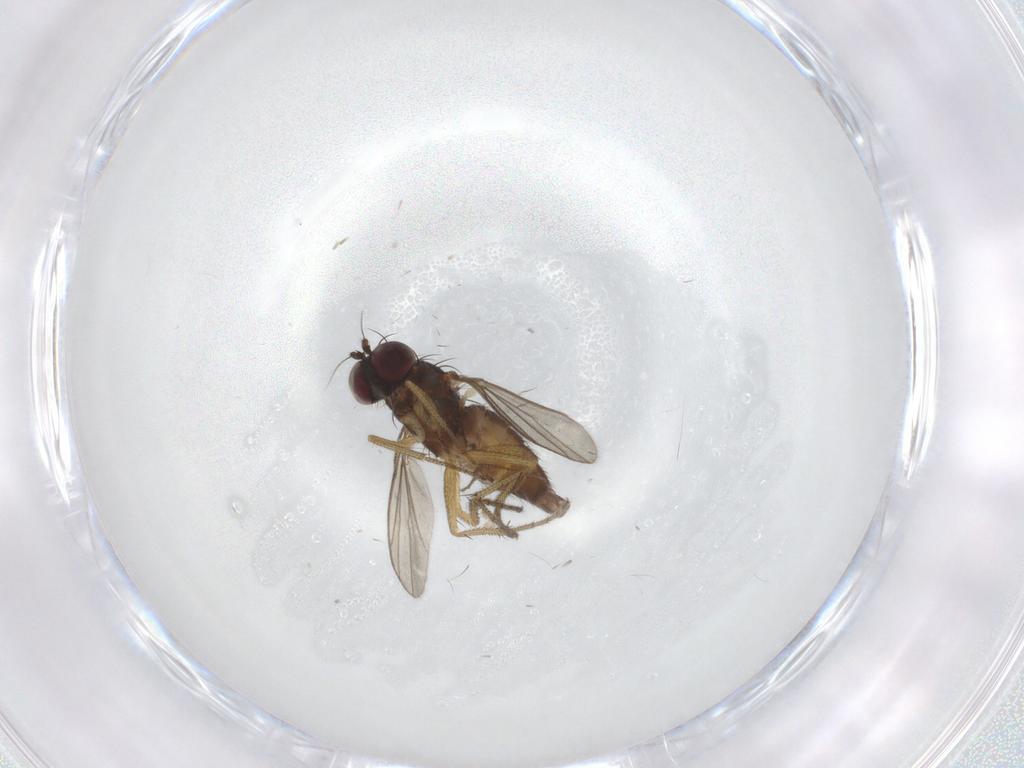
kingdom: Animalia
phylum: Arthropoda
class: Insecta
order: Diptera
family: Sciaridae
